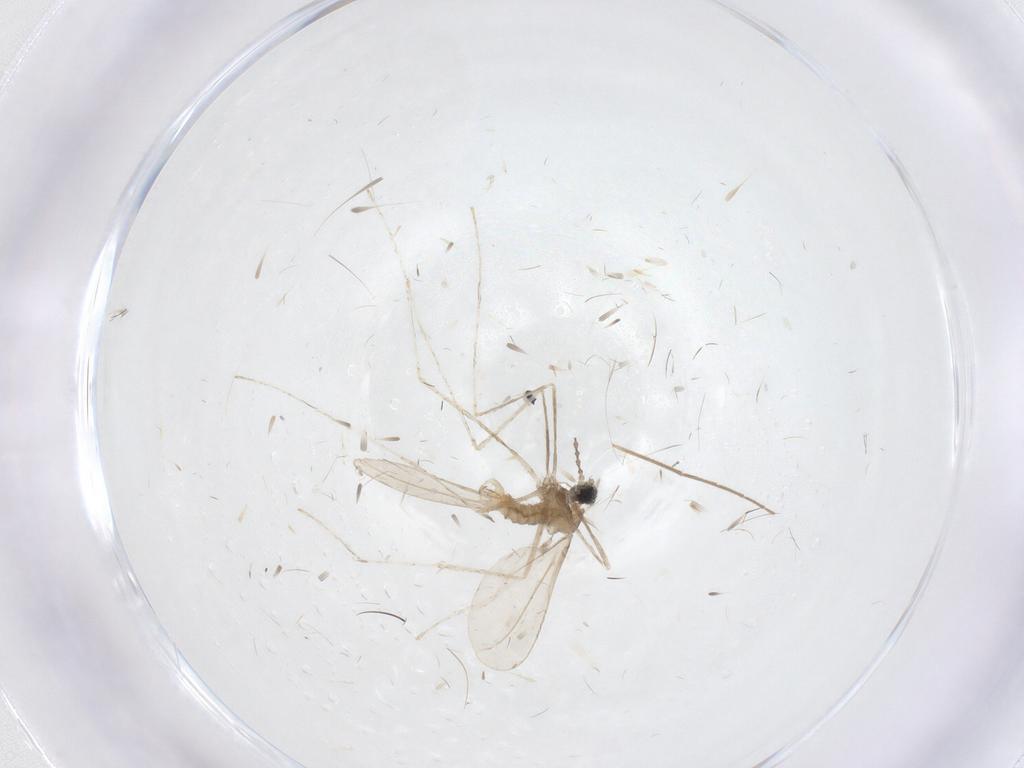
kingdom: Animalia
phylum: Arthropoda
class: Insecta
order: Diptera
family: Cecidomyiidae
